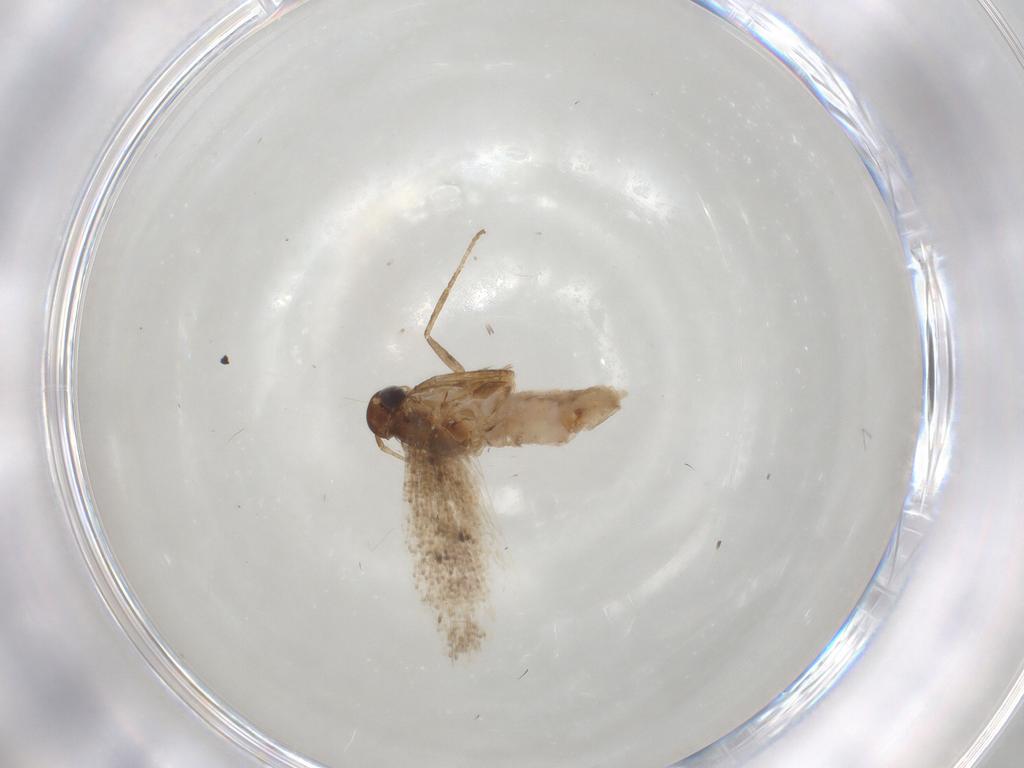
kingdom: Animalia
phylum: Arthropoda
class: Insecta
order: Lepidoptera
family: Gelechiidae
